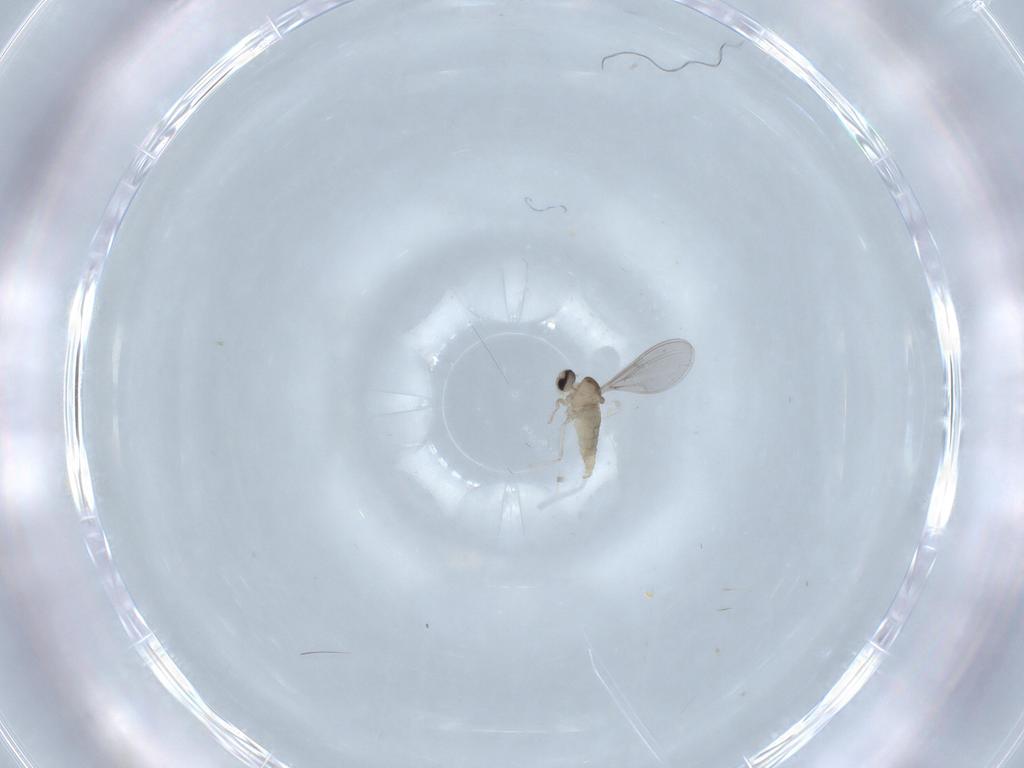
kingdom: Animalia
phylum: Arthropoda
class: Insecta
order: Diptera
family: Cecidomyiidae
